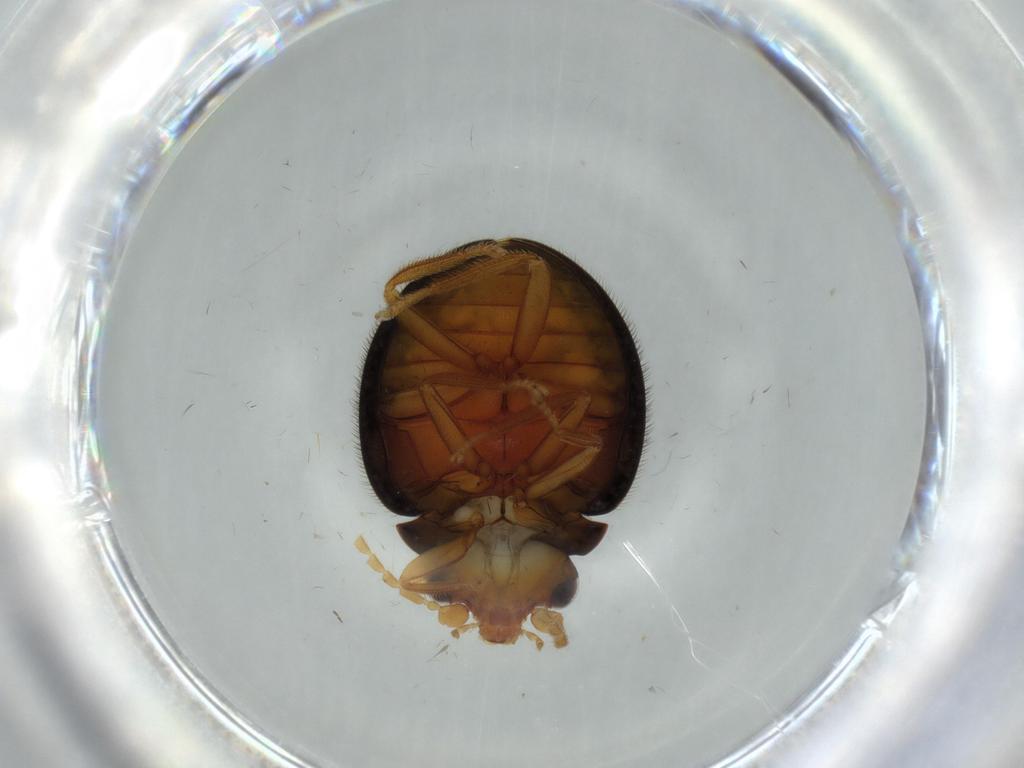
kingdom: Animalia
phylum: Arthropoda
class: Insecta
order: Coleoptera
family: Scirtidae
